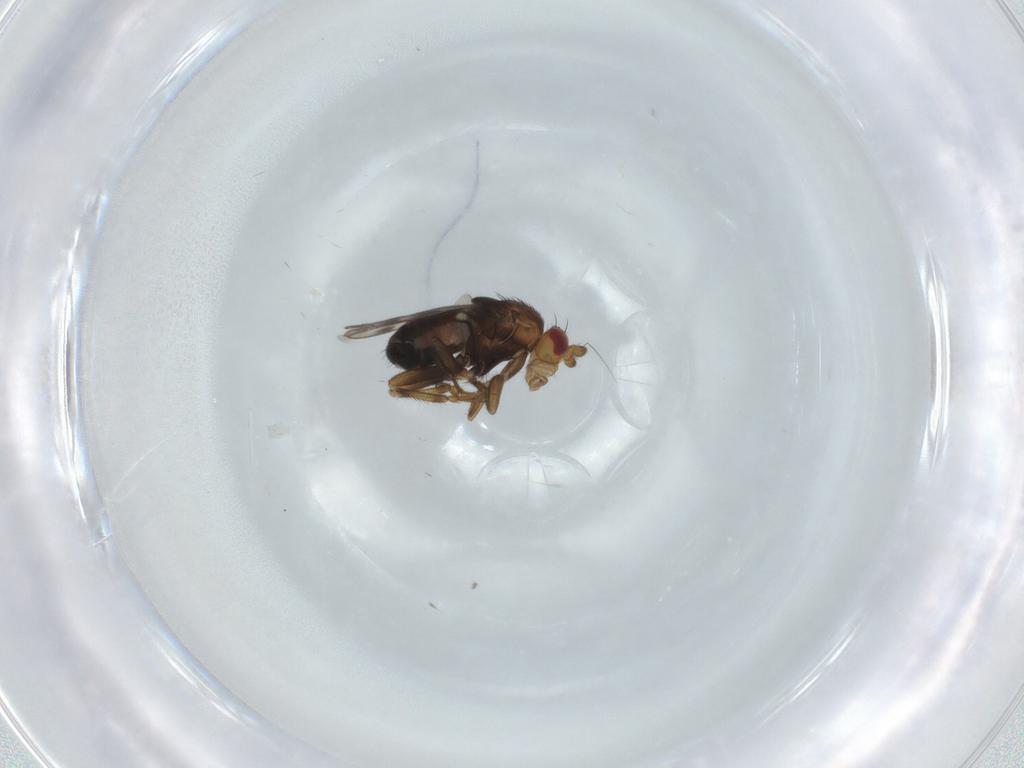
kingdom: Animalia
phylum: Arthropoda
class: Insecta
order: Diptera
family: Sphaeroceridae
